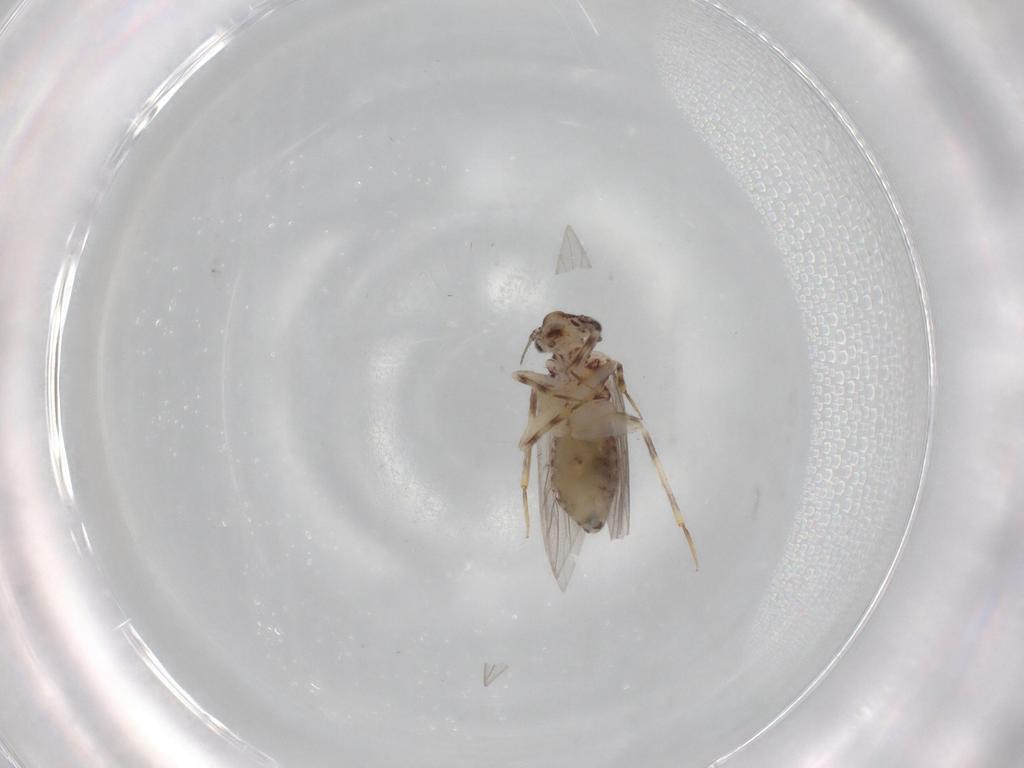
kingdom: Animalia
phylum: Arthropoda
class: Insecta
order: Psocodea
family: Lepidopsocidae
